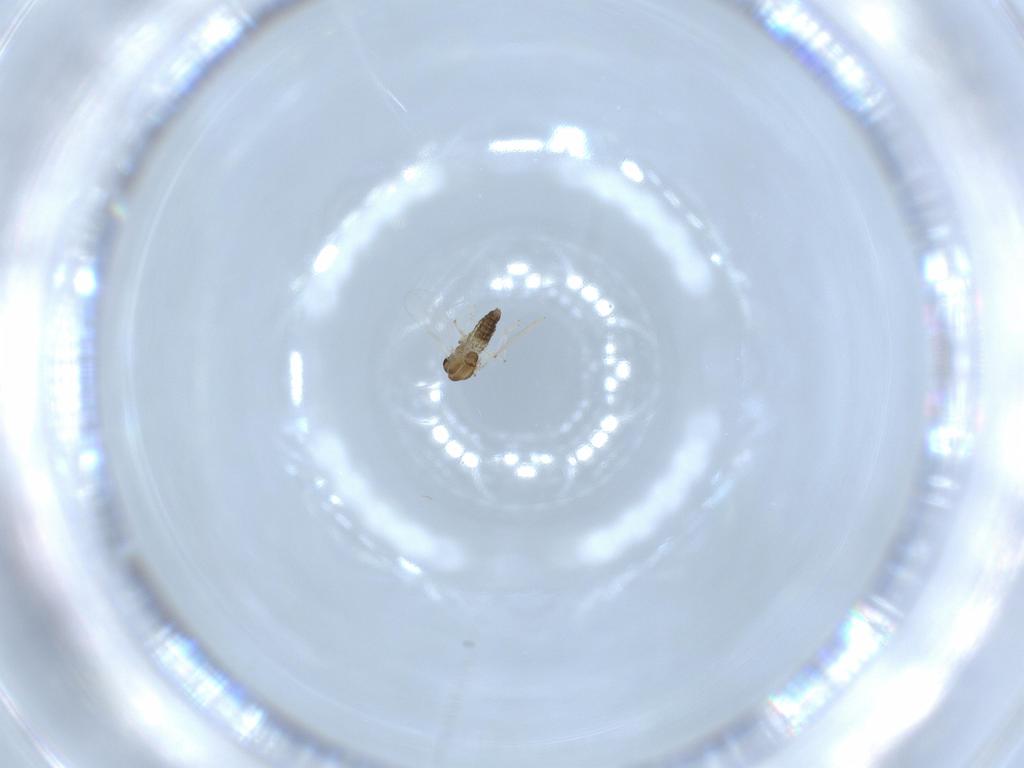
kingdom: Animalia
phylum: Arthropoda
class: Insecta
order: Diptera
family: Chironomidae
